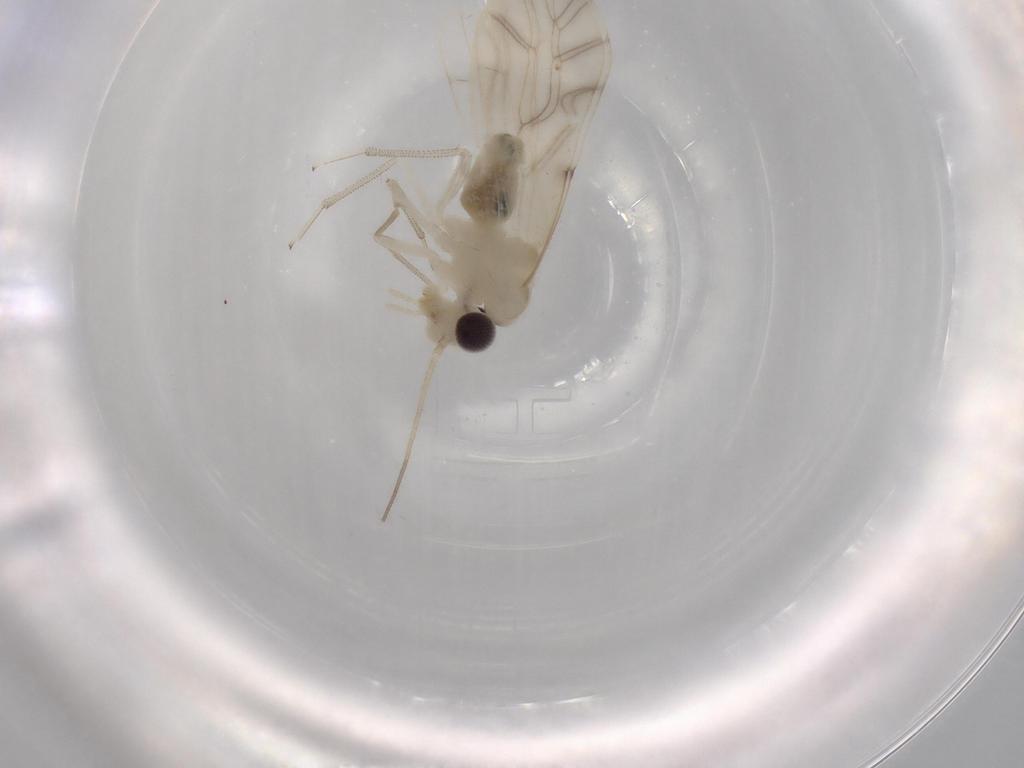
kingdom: Animalia
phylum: Arthropoda
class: Insecta
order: Psocodea
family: Caeciliusidae
